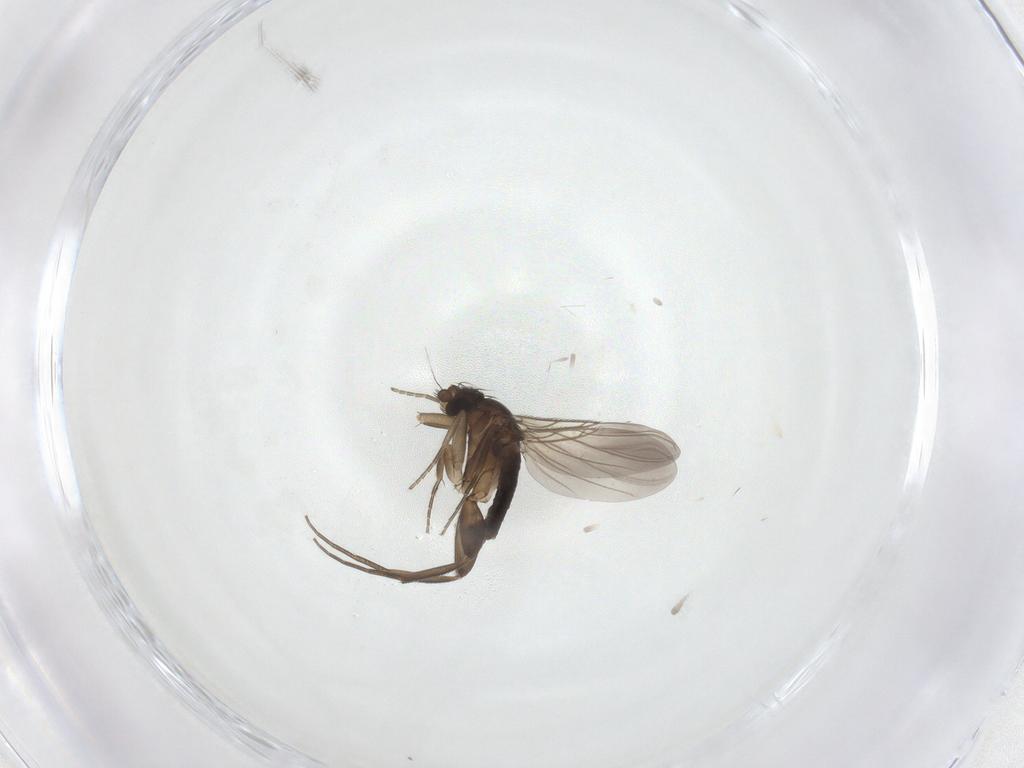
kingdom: Animalia
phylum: Arthropoda
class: Insecta
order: Diptera
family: Phoridae
